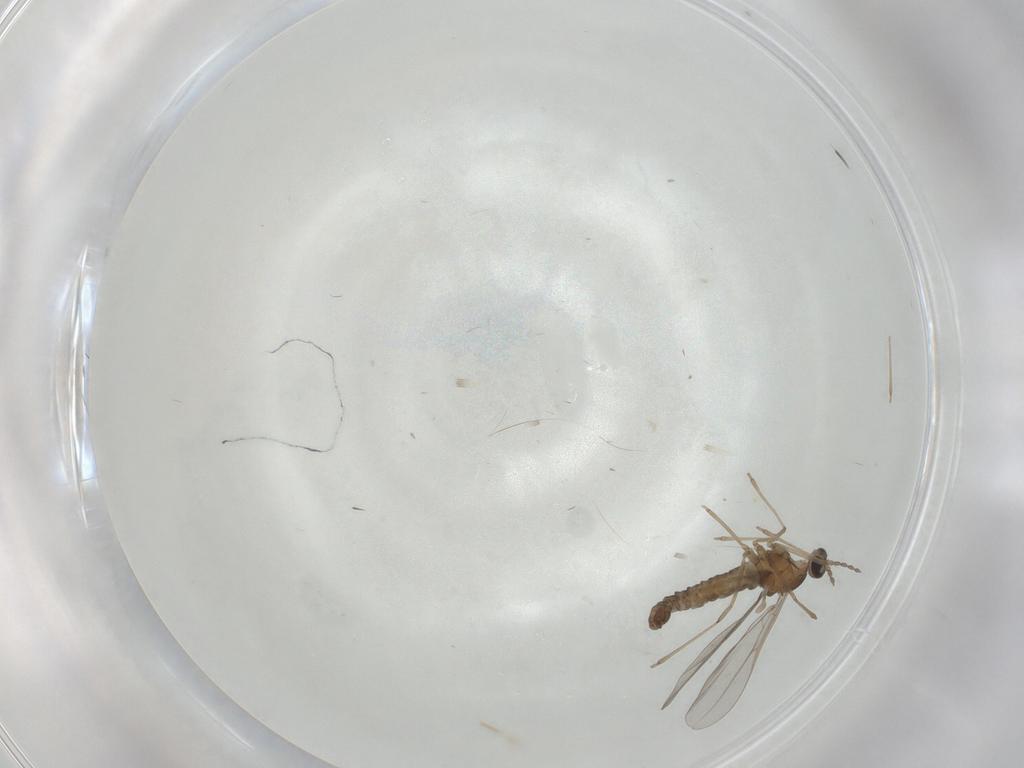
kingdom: Animalia
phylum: Arthropoda
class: Insecta
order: Diptera
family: Cecidomyiidae
